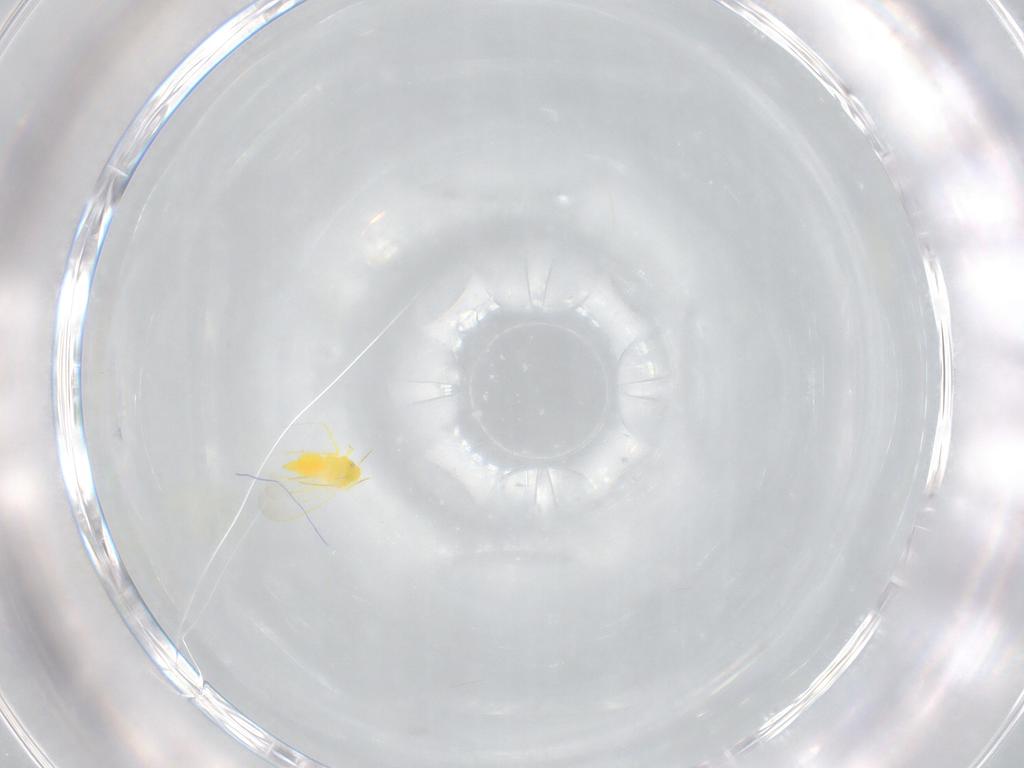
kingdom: Animalia
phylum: Arthropoda
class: Insecta
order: Hemiptera
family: Aleyrodidae
